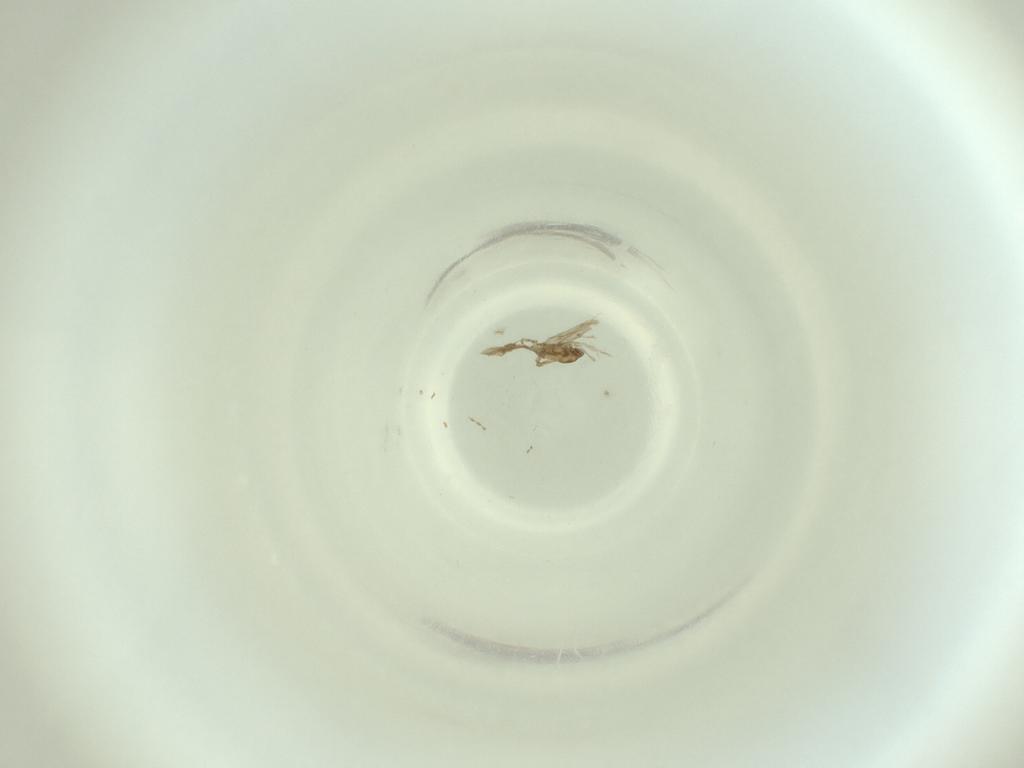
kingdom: Animalia
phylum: Arthropoda
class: Insecta
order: Diptera
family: Cecidomyiidae
